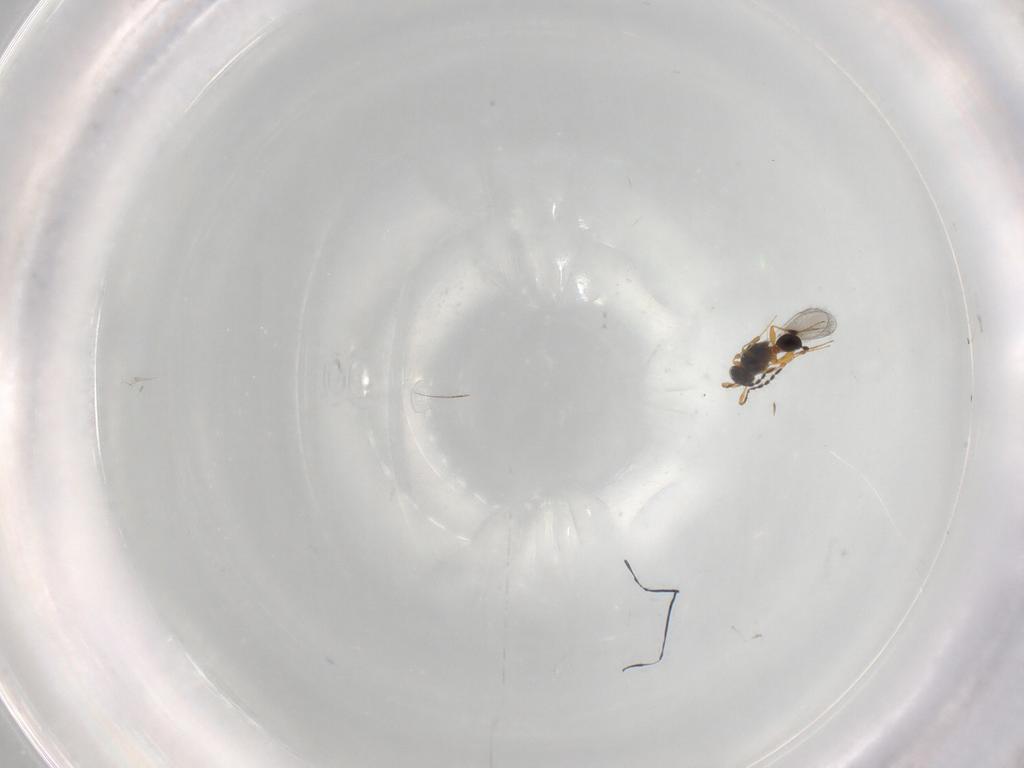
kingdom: Animalia
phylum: Arthropoda
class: Insecta
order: Hymenoptera
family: Platygastridae
